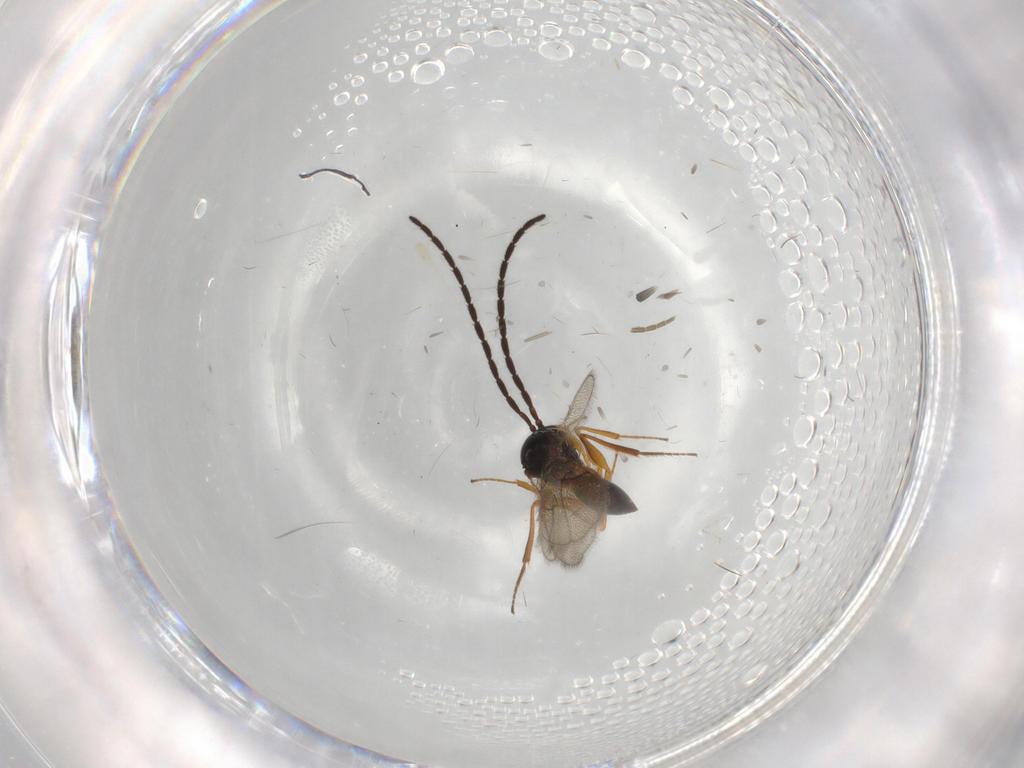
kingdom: Animalia
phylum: Arthropoda
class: Insecta
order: Hymenoptera
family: Figitidae
